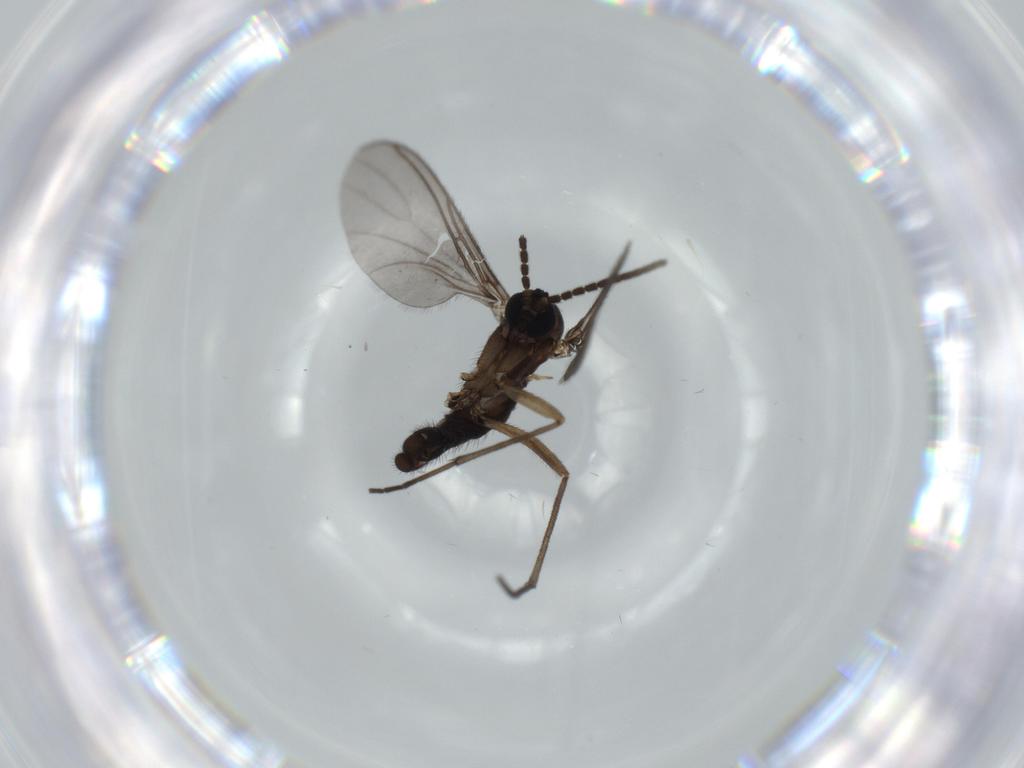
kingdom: Animalia
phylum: Arthropoda
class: Insecta
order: Diptera
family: Sciaridae
